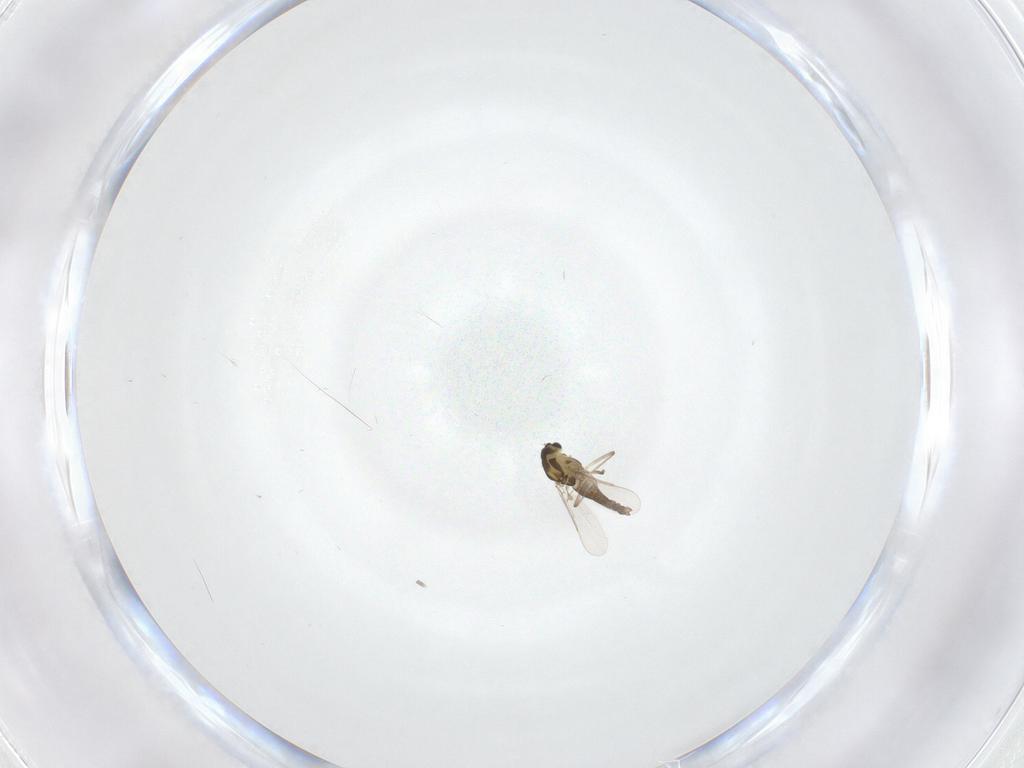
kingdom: Animalia
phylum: Arthropoda
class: Insecta
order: Diptera
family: Chironomidae
